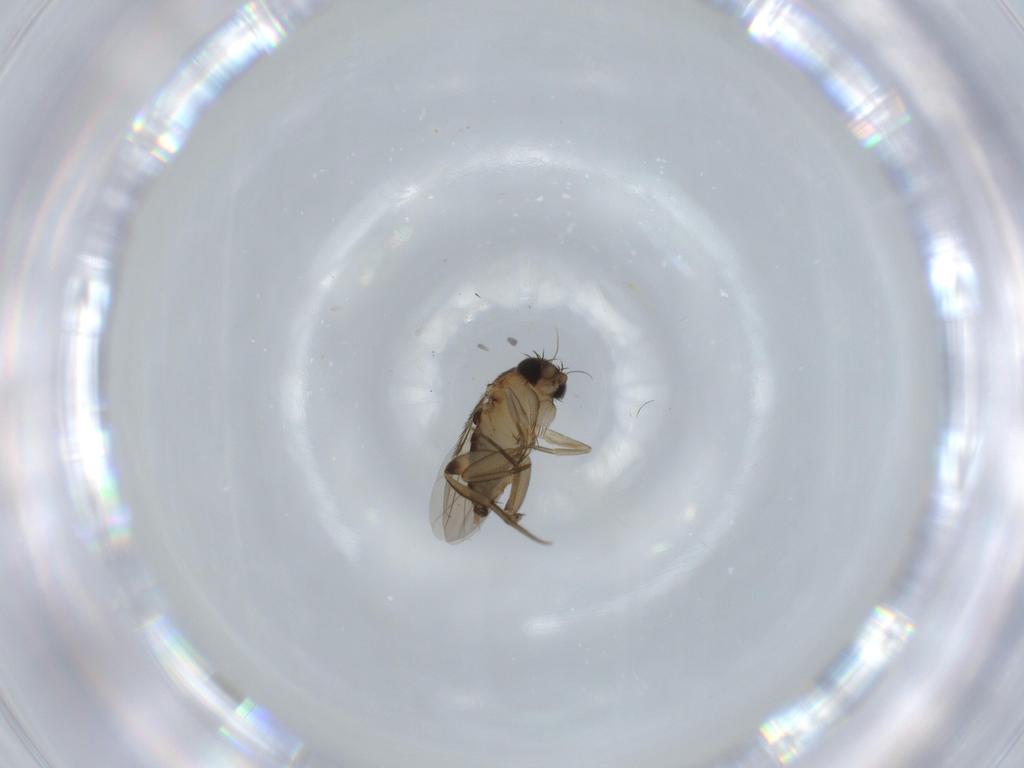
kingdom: Animalia
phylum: Arthropoda
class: Insecta
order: Diptera
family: Phoridae
